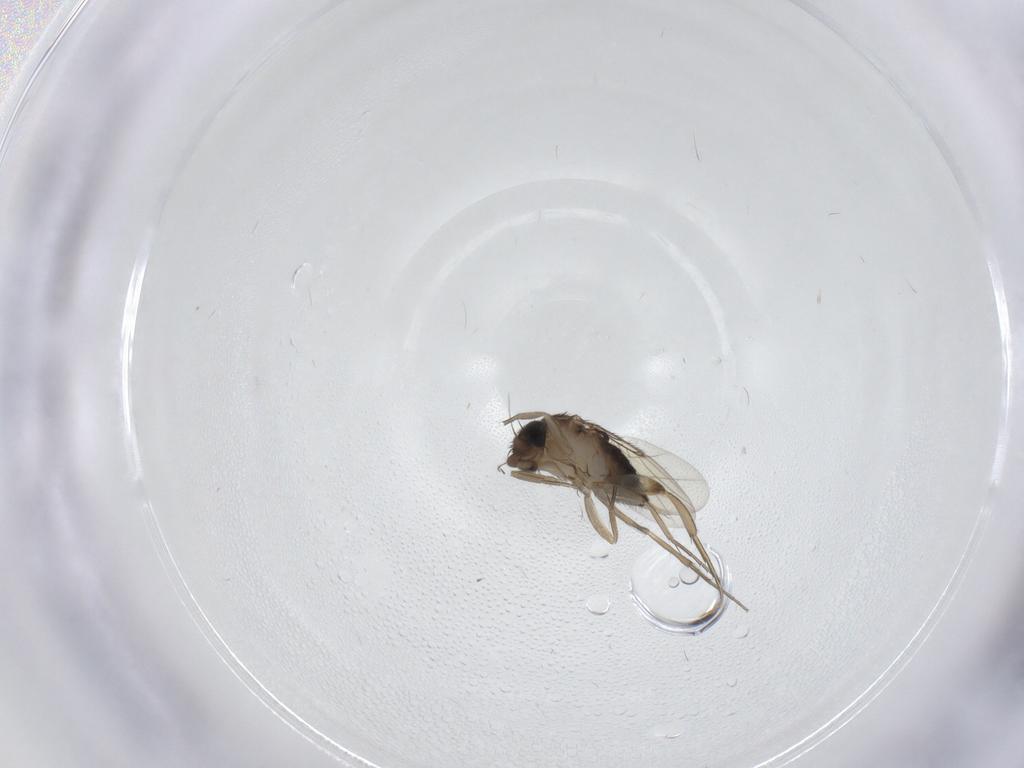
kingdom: Animalia
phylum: Arthropoda
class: Insecta
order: Diptera
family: Phoridae
